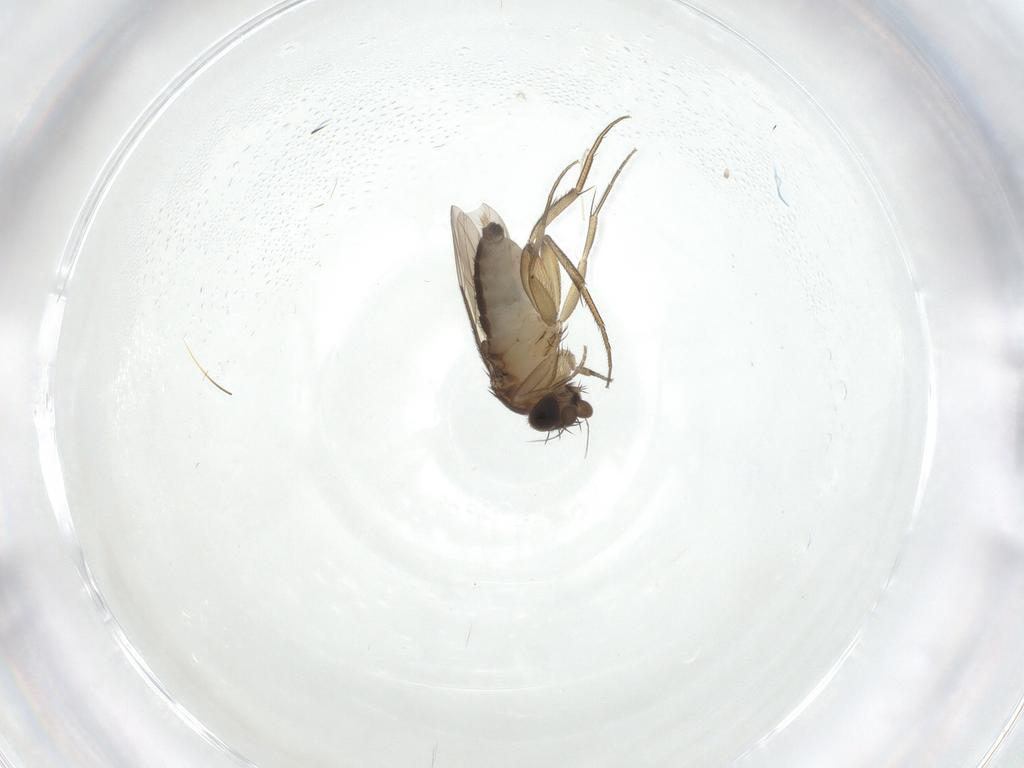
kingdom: Animalia
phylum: Arthropoda
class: Insecta
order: Diptera
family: Phoridae
